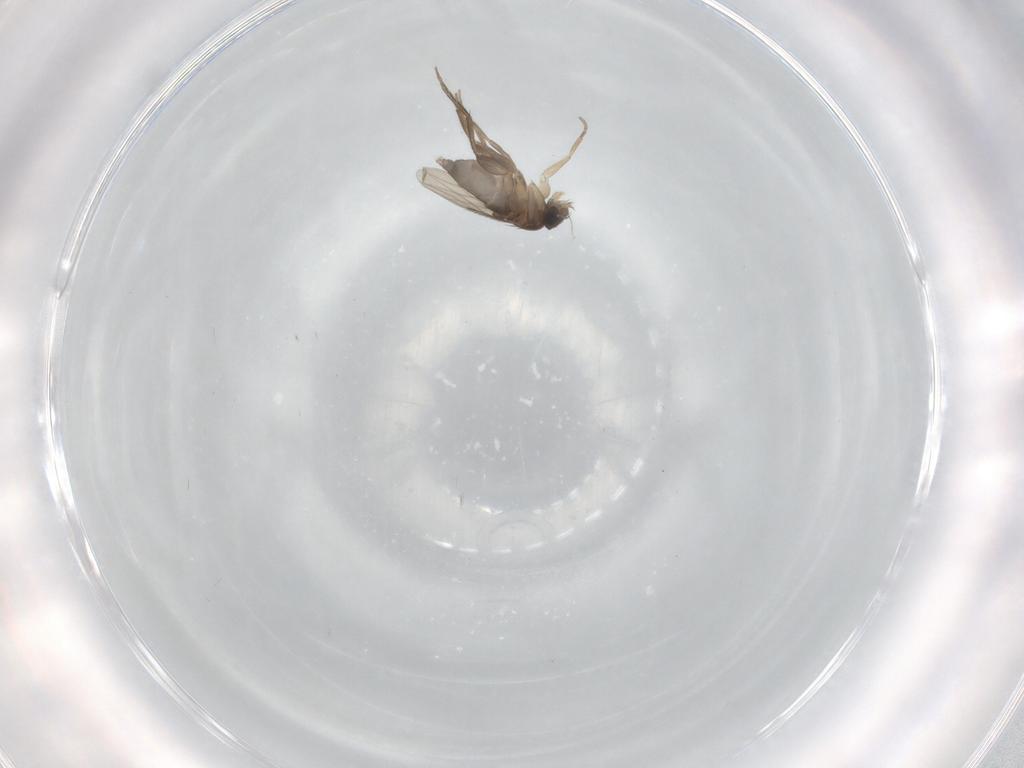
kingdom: Animalia
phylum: Arthropoda
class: Insecta
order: Diptera
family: Phoridae
